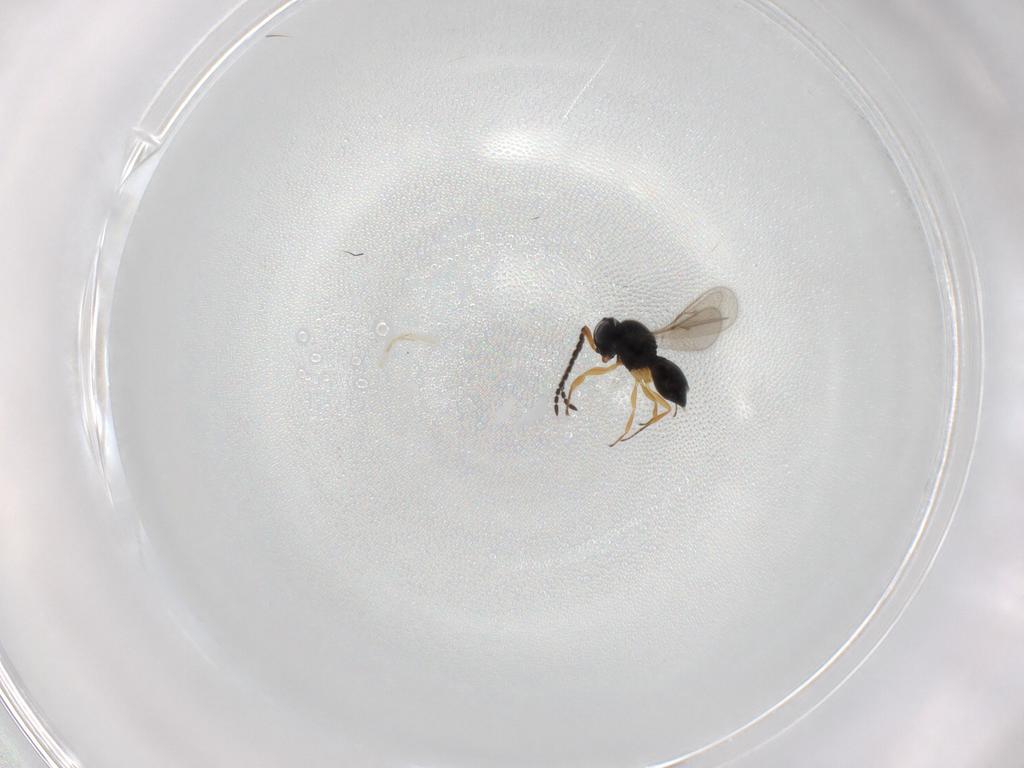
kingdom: Animalia
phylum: Arthropoda
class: Insecta
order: Hymenoptera
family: Scelionidae
